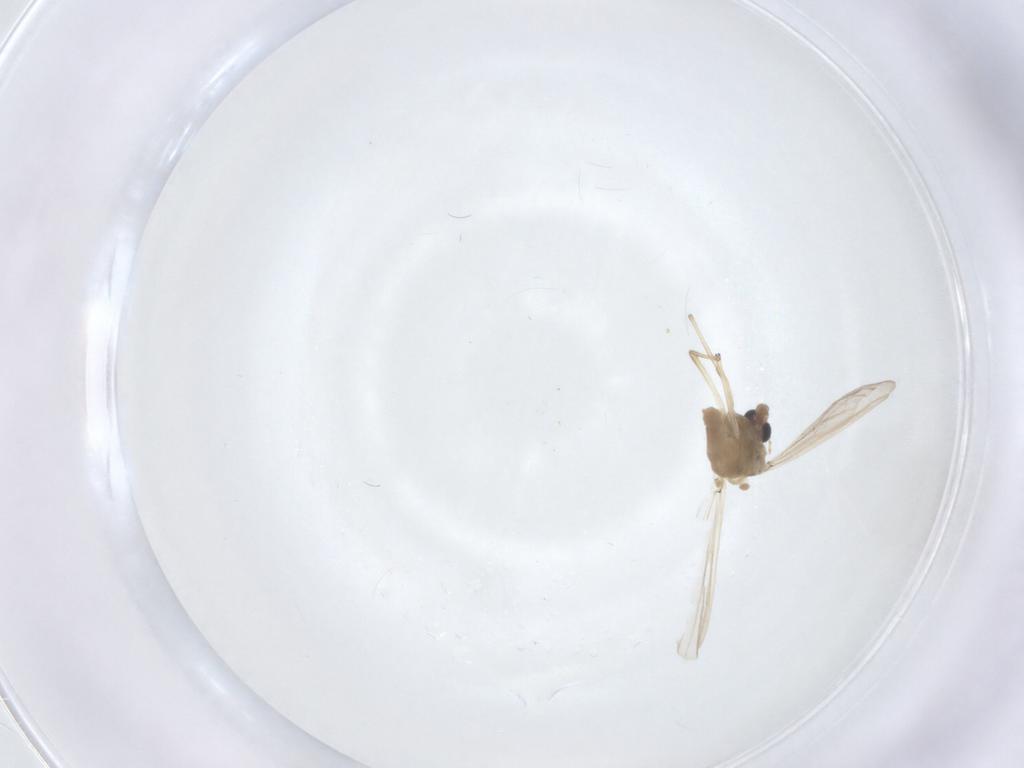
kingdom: Animalia
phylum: Arthropoda
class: Insecta
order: Diptera
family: Chironomidae
